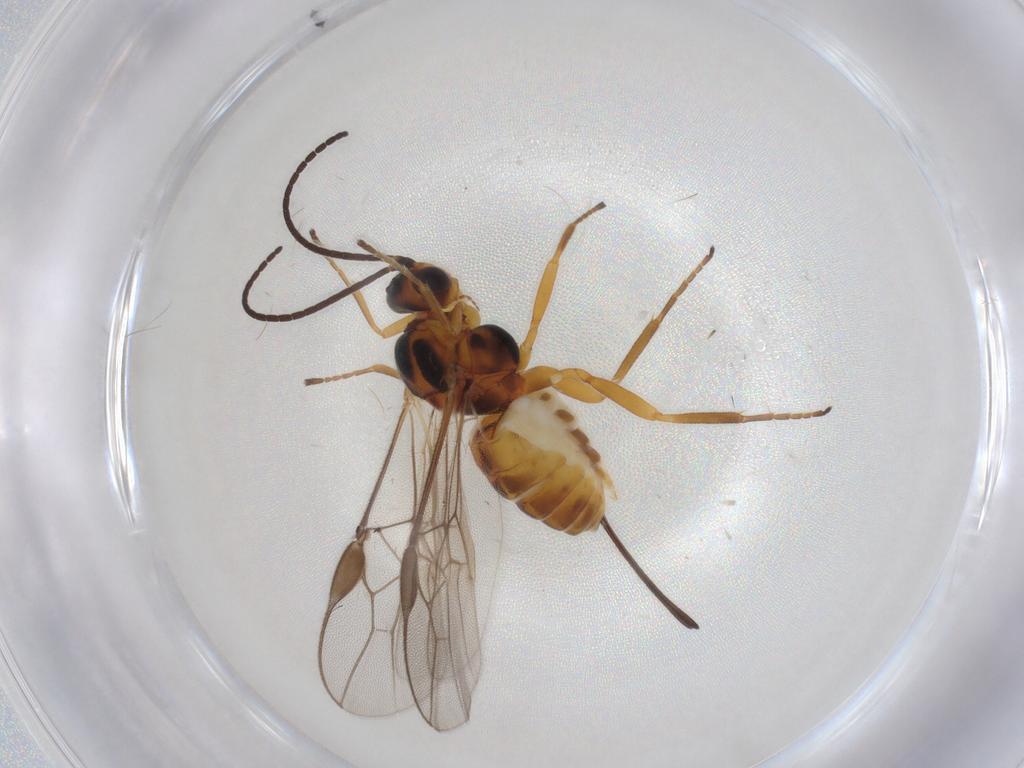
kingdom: Animalia
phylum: Arthropoda
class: Insecta
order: Hymenoptera
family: Braconidae
